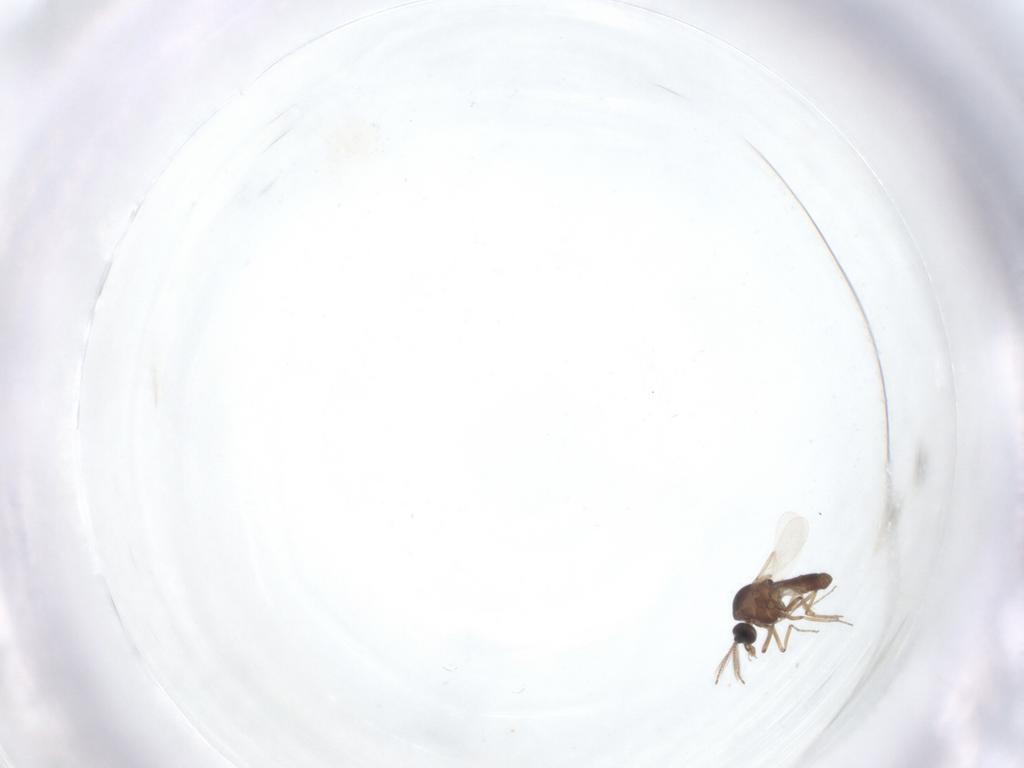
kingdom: Animalia
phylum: Arthropoda
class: Insecta
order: Diptera
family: Ceratopogonidae
